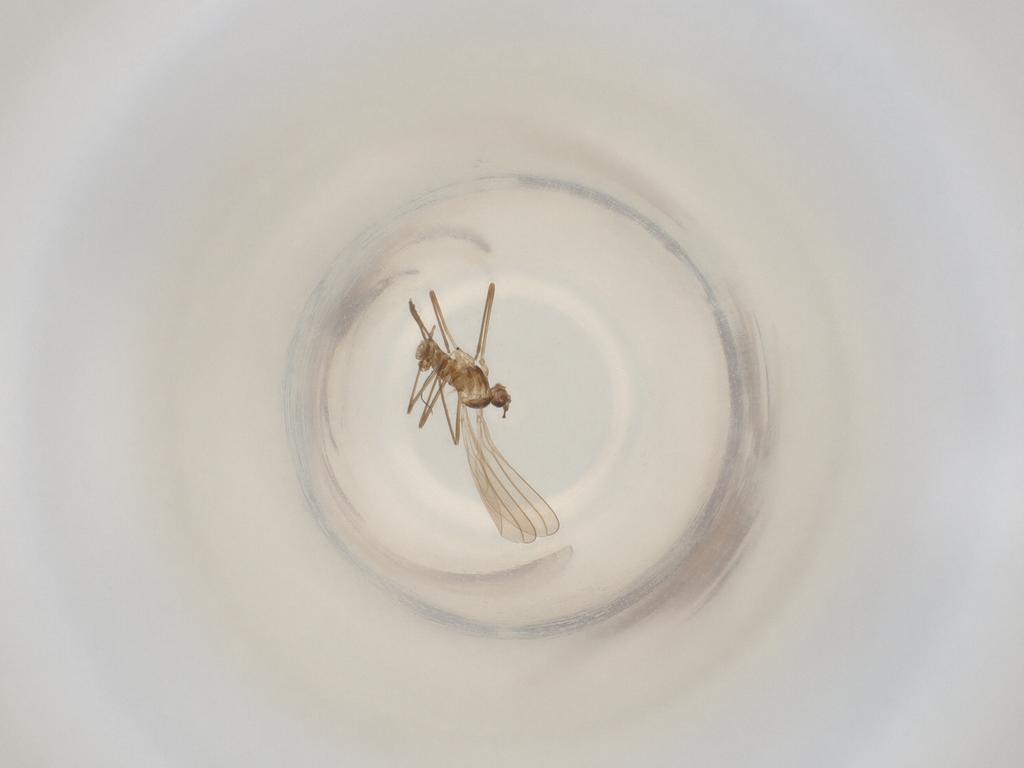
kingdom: Animalia
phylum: Arthropoda
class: Insecta
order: Diptera
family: Cecidomyiidae
